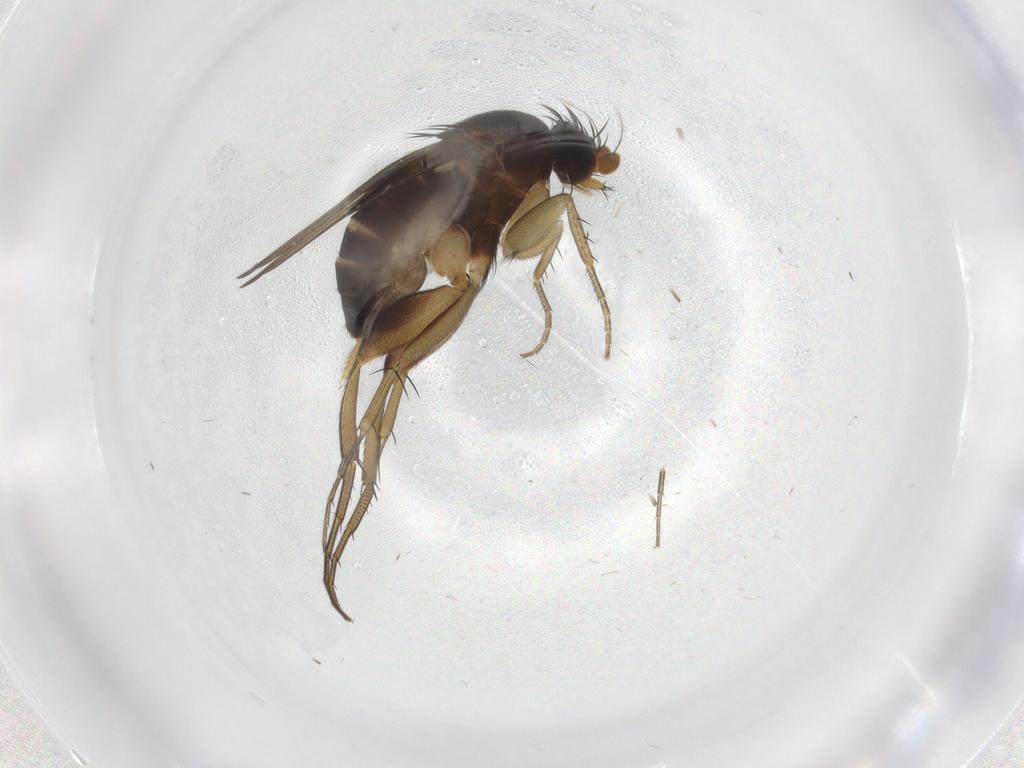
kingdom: Animalia
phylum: Arthropoda
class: Insecta
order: Diptera
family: Phoridae
